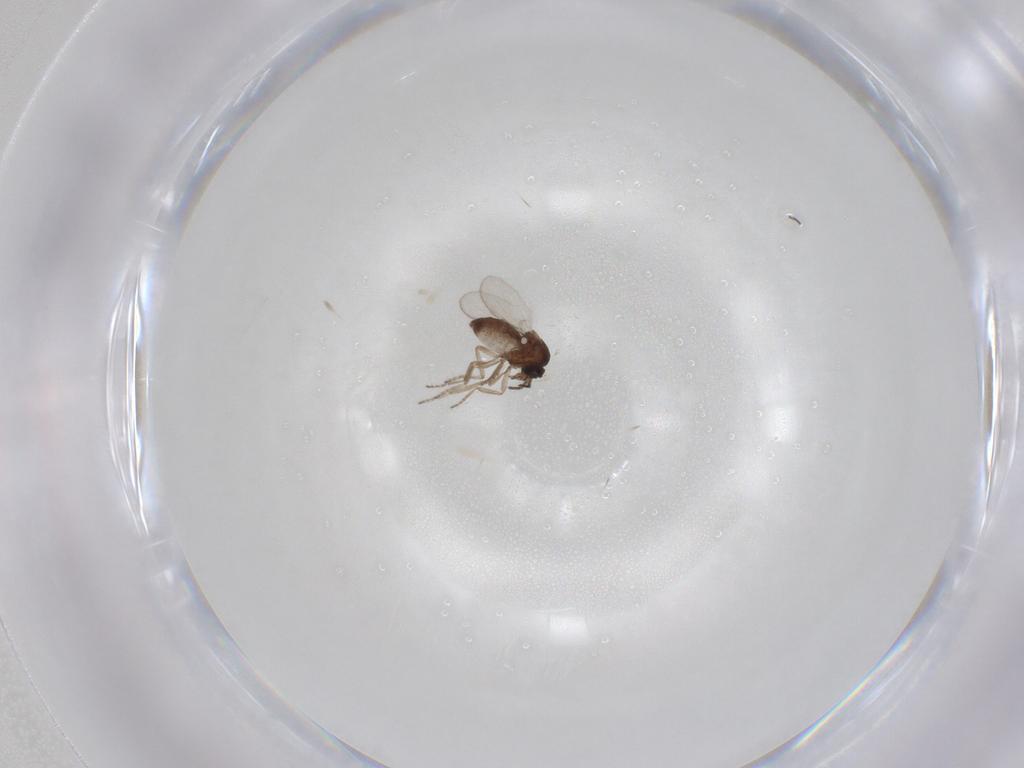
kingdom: Animalia
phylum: Arthropoda
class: Insecta
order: Diptera
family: Ceratopogonidae
